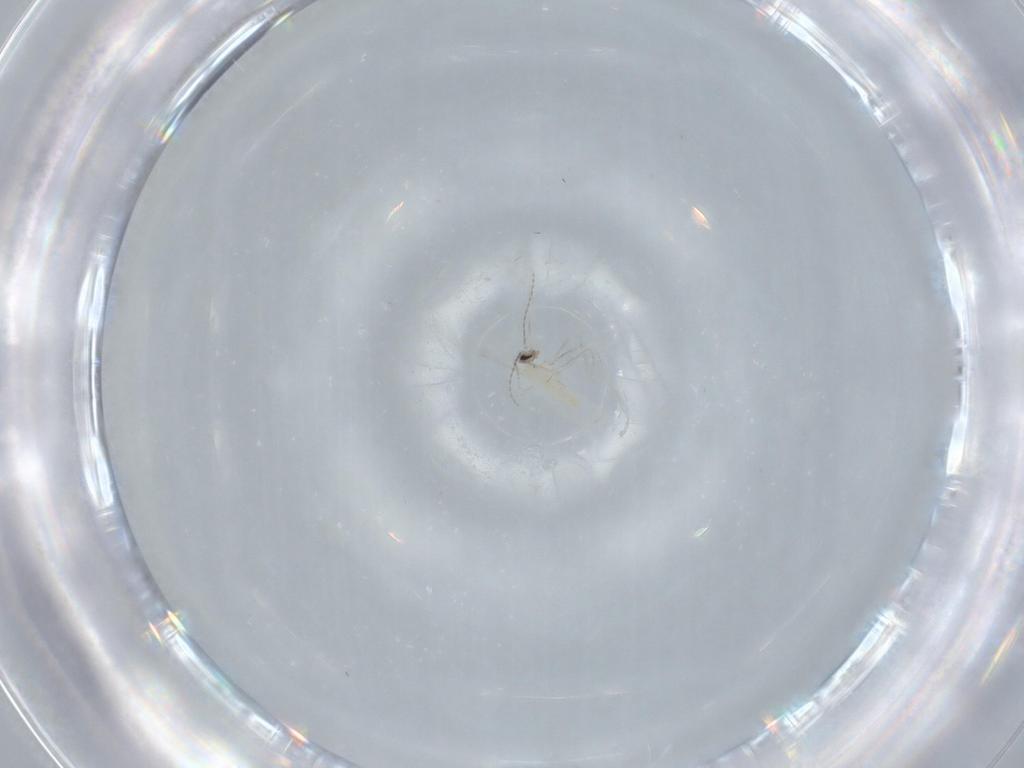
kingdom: Animalia
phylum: Arthropoda
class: Insecta
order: Diptera
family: Cecidomyiidae
